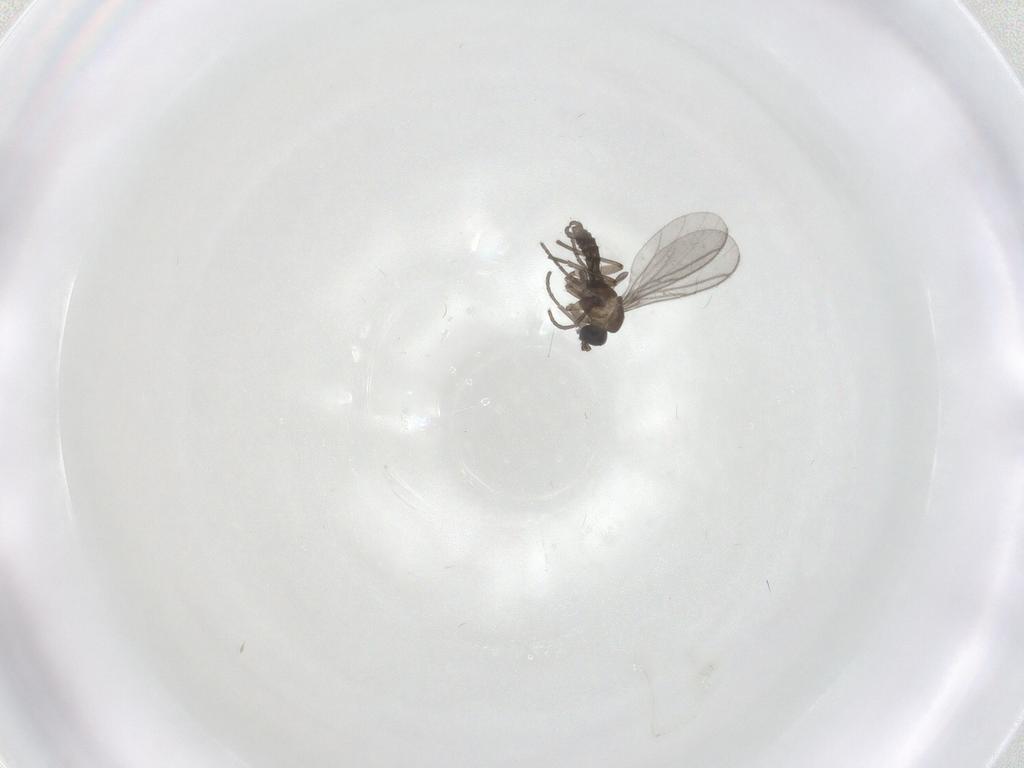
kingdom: Animalia
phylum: Arthropoda
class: Insecta
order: Diptera
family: Cecidomyiidae
